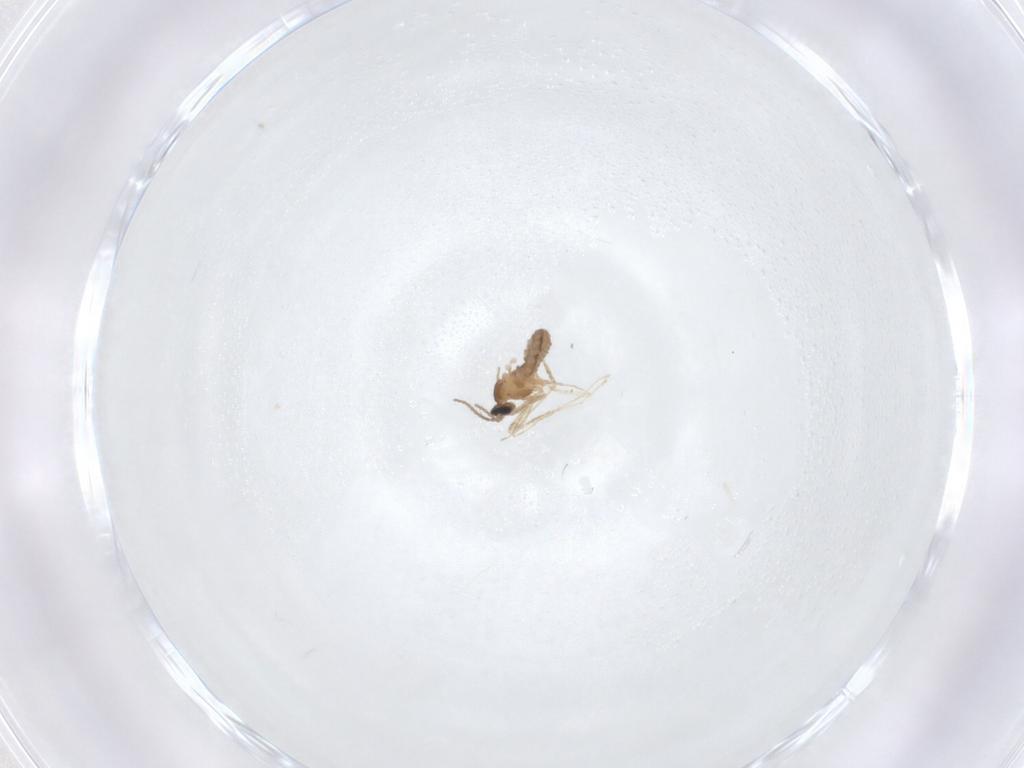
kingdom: Animalia
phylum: Arthropoda
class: Insecta
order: Diptera
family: Cecidomyiidae
